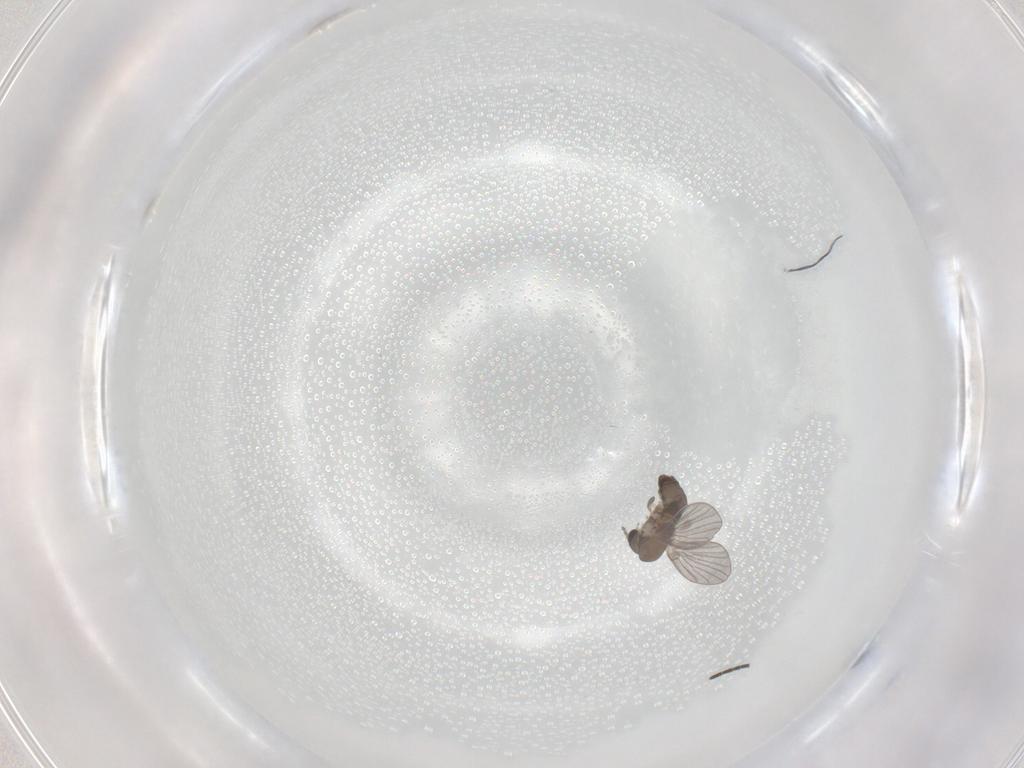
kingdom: Animalia
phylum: Arthropoda
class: Insecta
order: Diptera
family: Psychodidae
